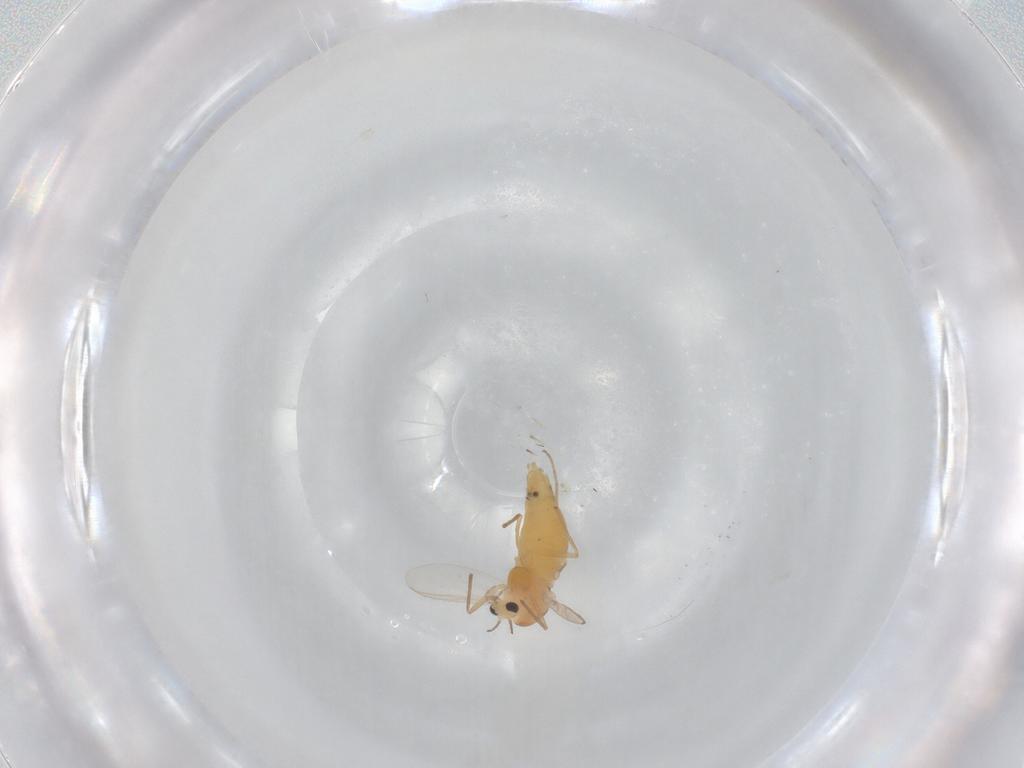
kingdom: Animalia
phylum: Arthropoda
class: Insecta
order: Diptera
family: Chironomidae
